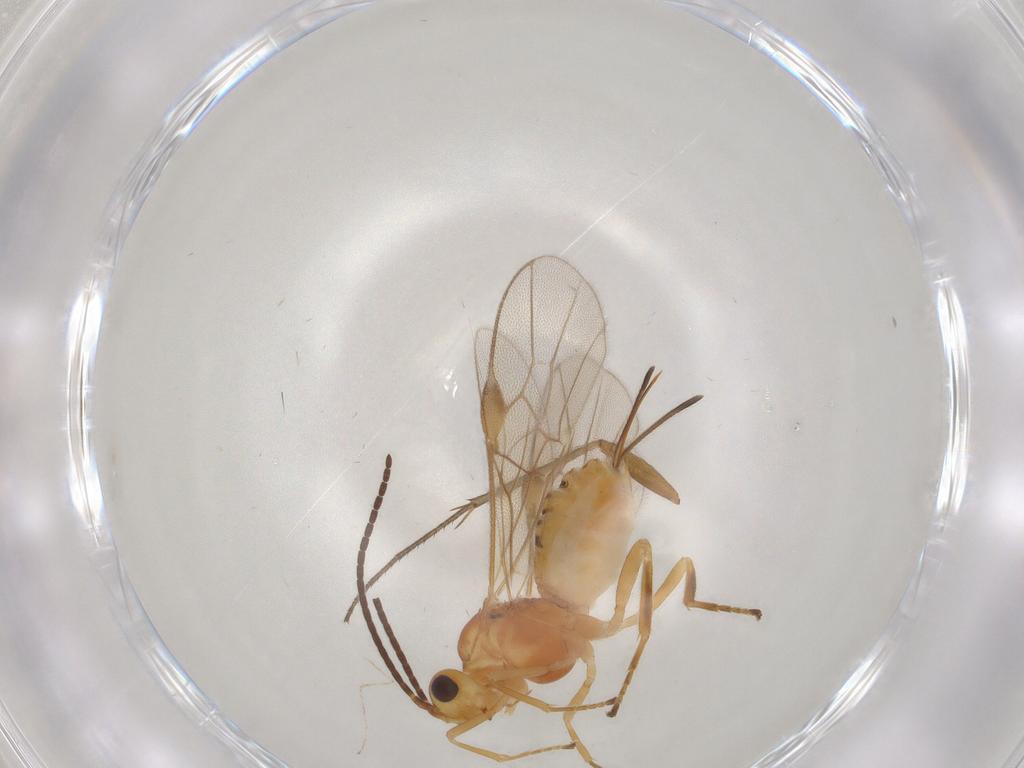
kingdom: Animalia
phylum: Arthropoda
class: Insecta
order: Hymenoptera
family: Braconidae
